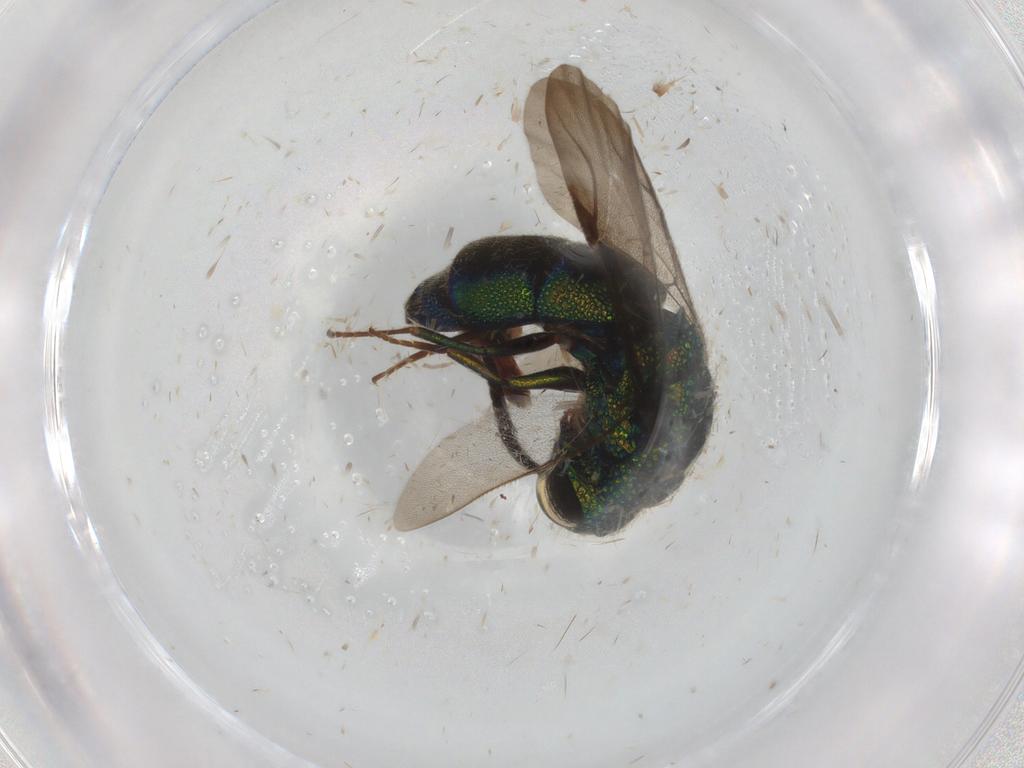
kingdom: Animalia
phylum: Arthropoda
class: Insecta
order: Hymenoptera
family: Chrysididae
